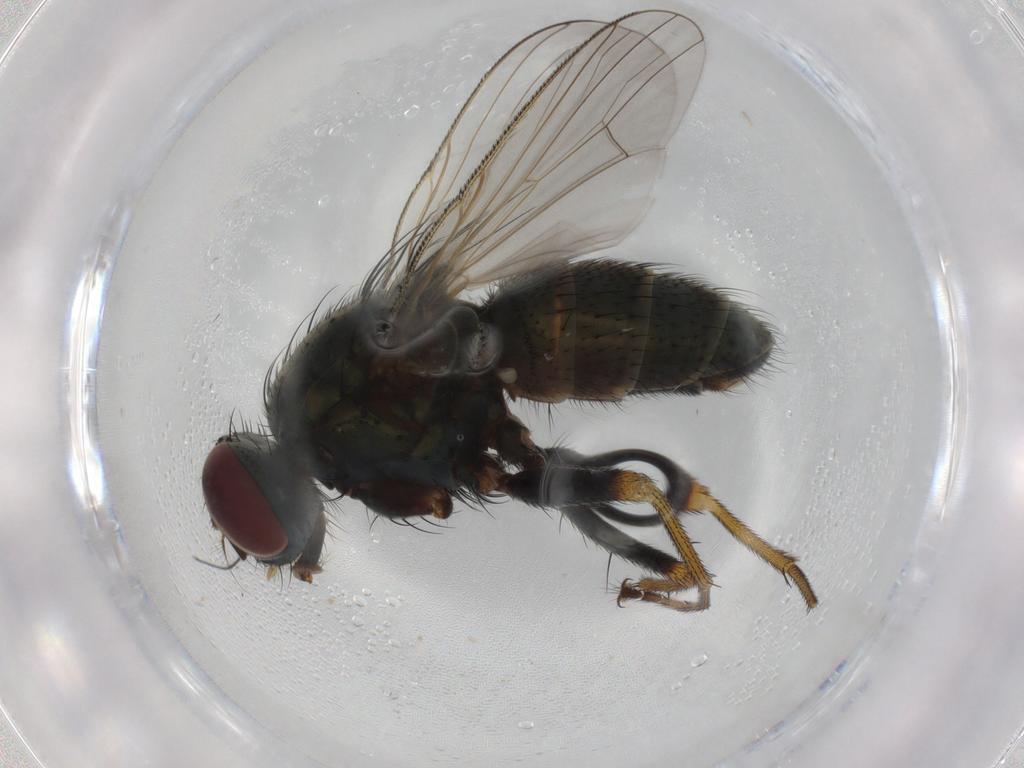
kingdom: Animalia
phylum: Arthropoda
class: Insecta
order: Diptera
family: Muscidae
